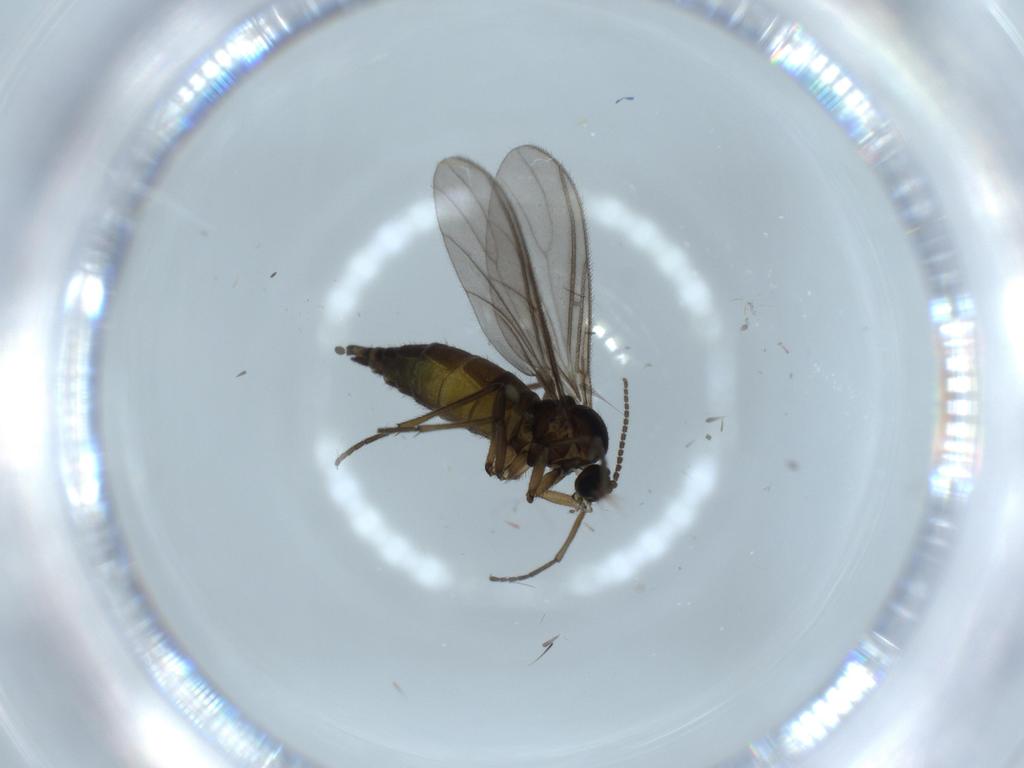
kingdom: Animalia
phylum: Arthropoda
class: Insecta
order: Diptera
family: Sciaridae
